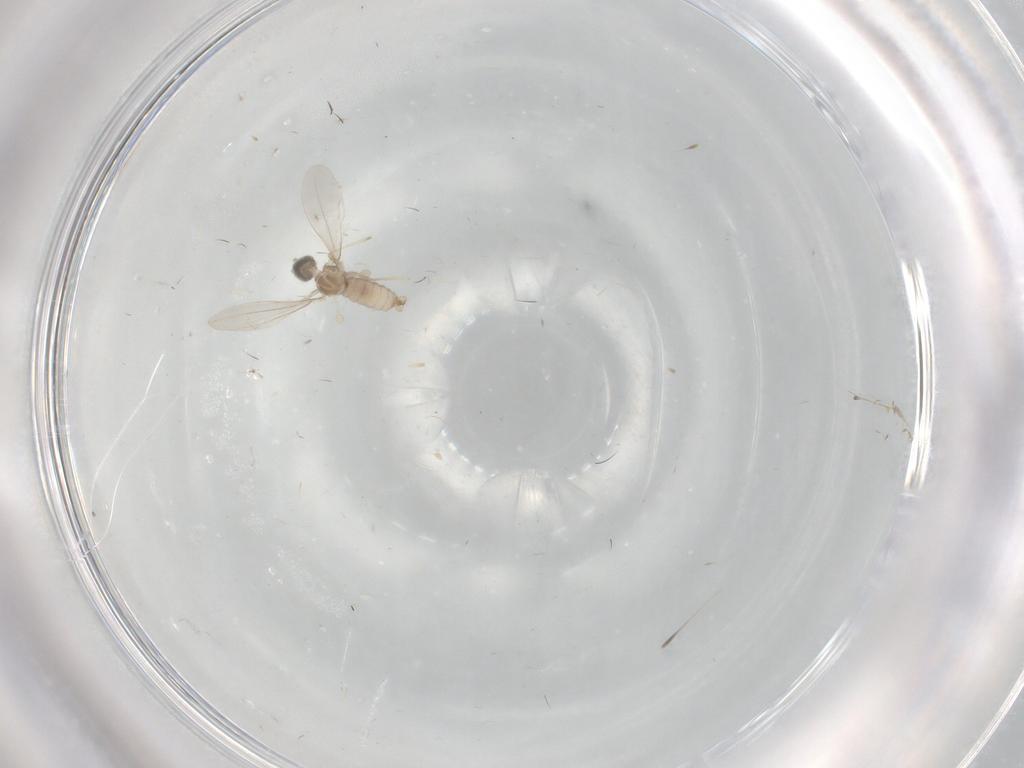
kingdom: Animalia
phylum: Arthropoda
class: Insecta
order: Diptera
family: Cecidomyiidae
